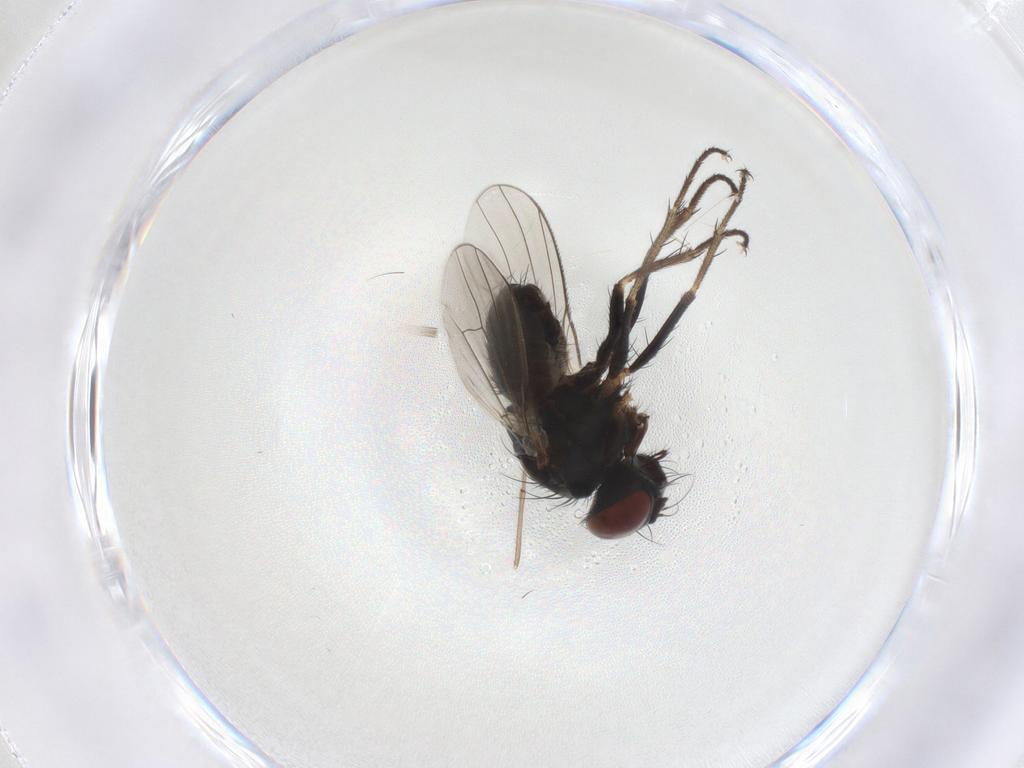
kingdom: Animalia
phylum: Arthropoda
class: Insecta
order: Diptera
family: Muscidae
